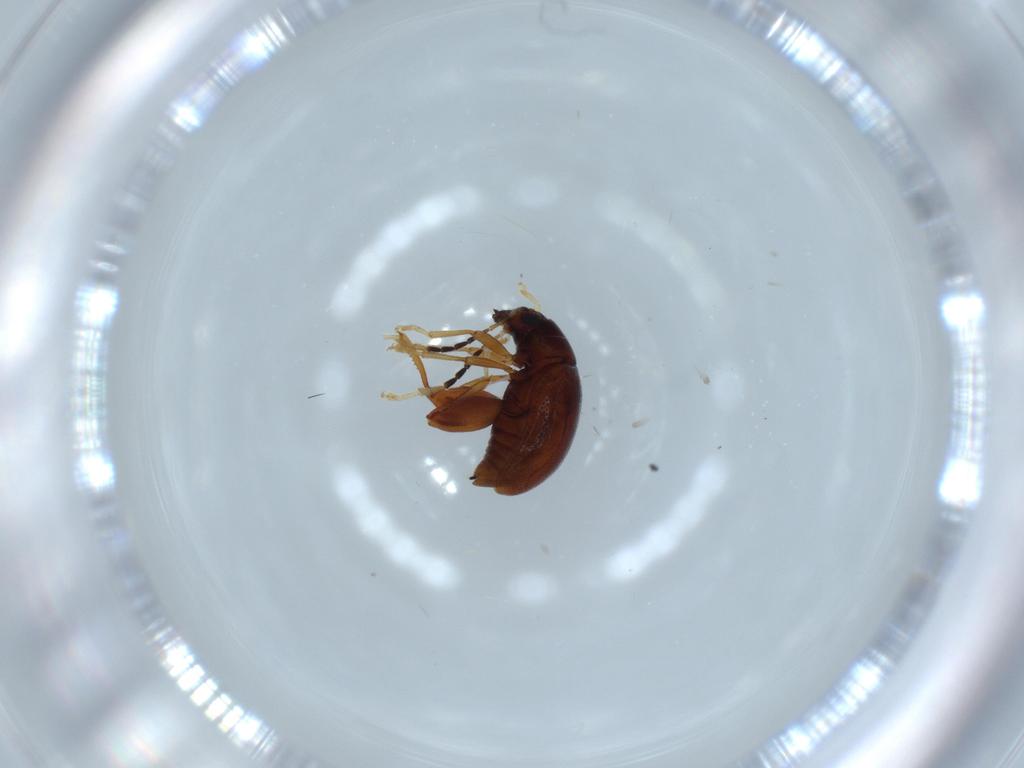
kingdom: Animalia
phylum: Arthropoda
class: Insecta
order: Coleoptera
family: Chrysomelidae
